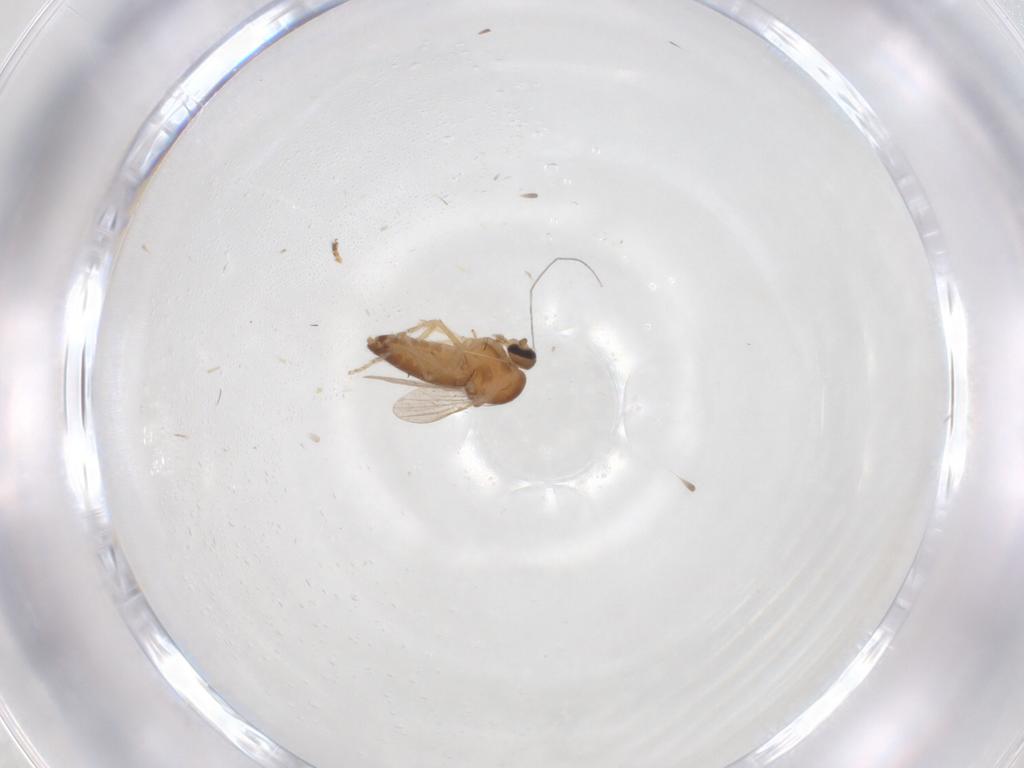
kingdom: Animalia
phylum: Arthropoda
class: Insecta
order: Diptera
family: Ceratopogonidae
